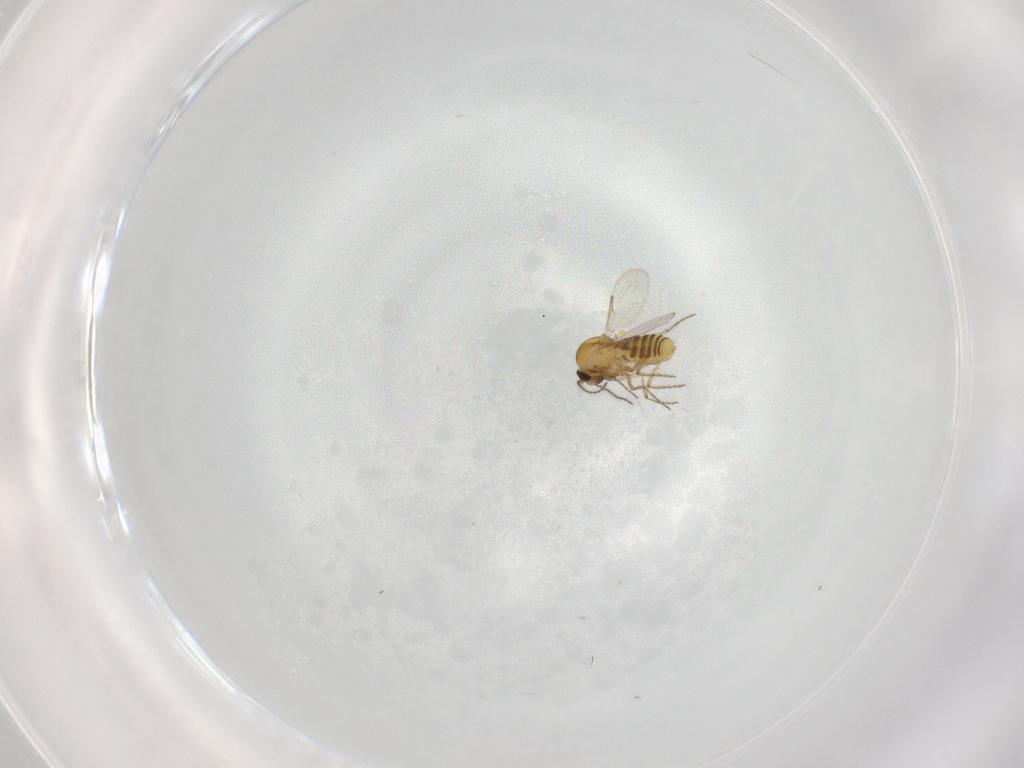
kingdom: Animalia
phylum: Arthropoda
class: Insecta
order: Diptera
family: Ceratopogonidae
